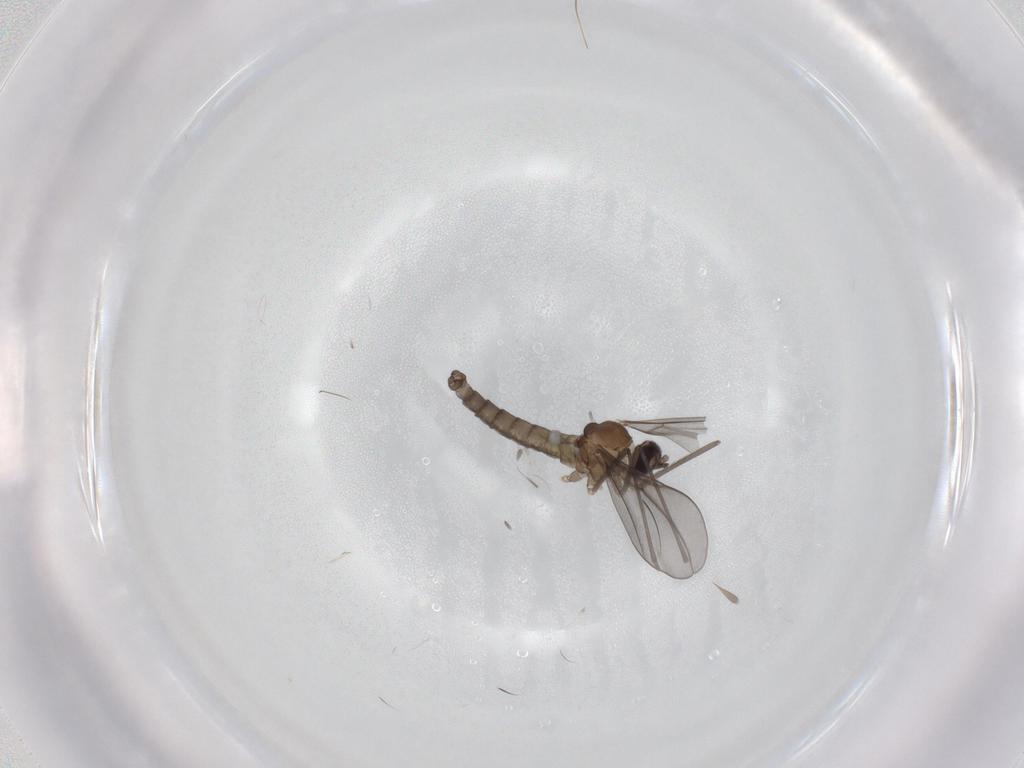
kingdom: Animalia
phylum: Arthropoda
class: Insecta
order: Diptera
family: Cecidomyiidae
